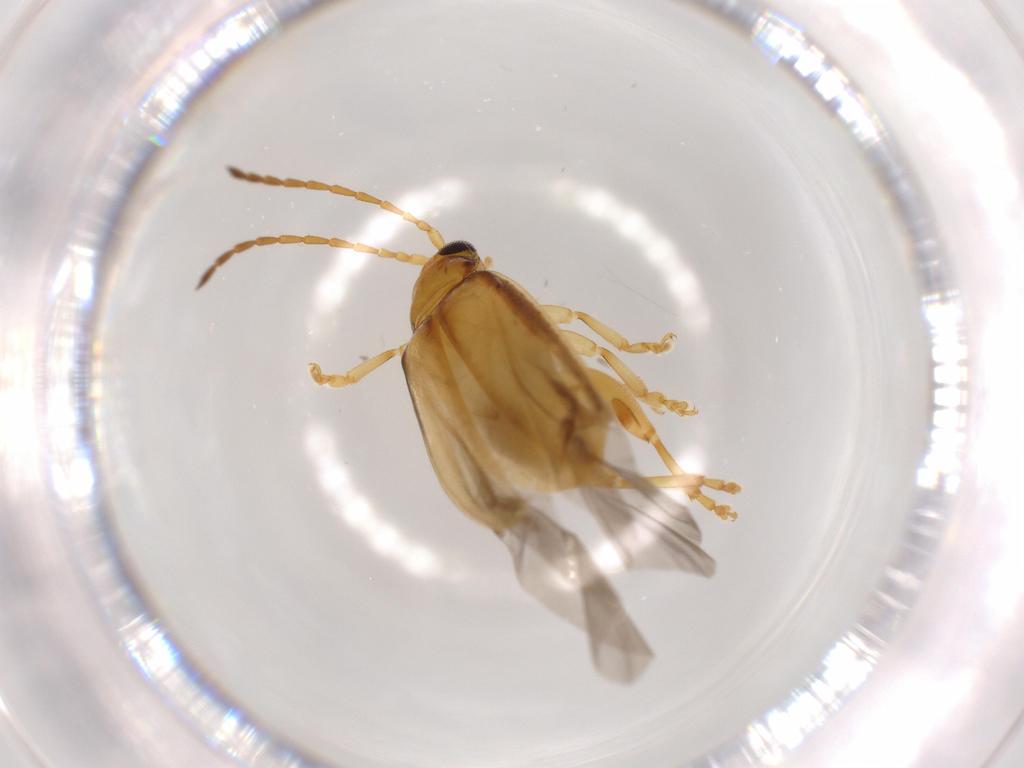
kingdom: Animalia
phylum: Arthropoda
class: Insecta
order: Coleoptera
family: Chrysomelidae
